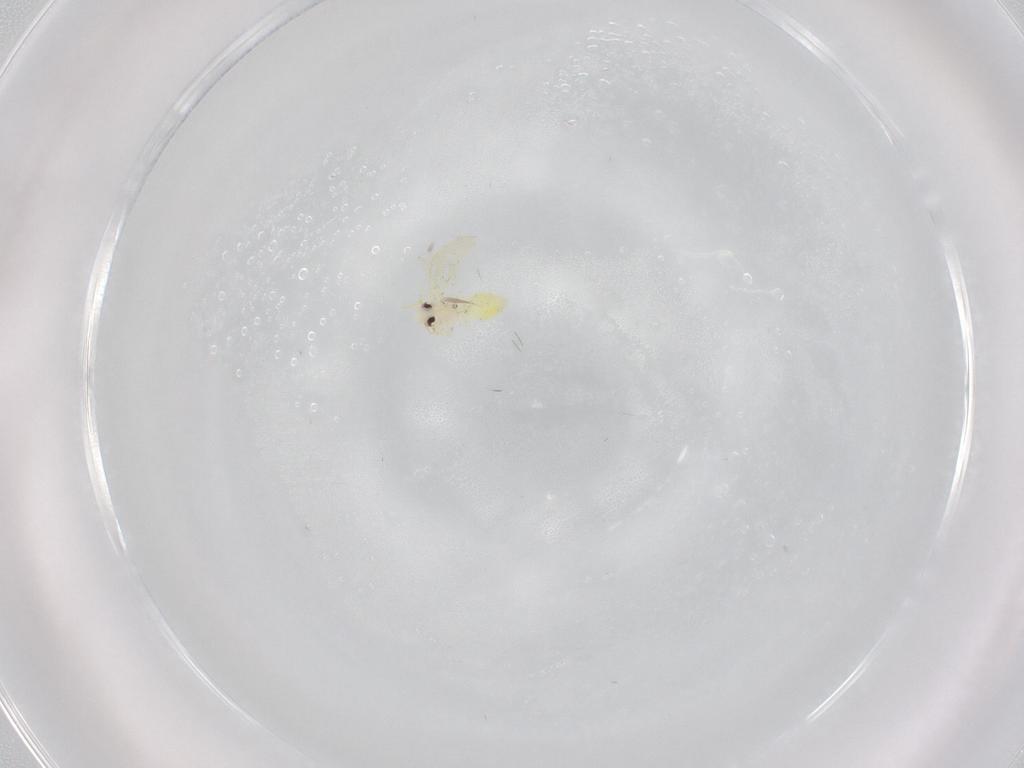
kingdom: Animalia
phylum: Arthropoda
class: Insecta
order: Hemiptera
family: Aleyrodidae
